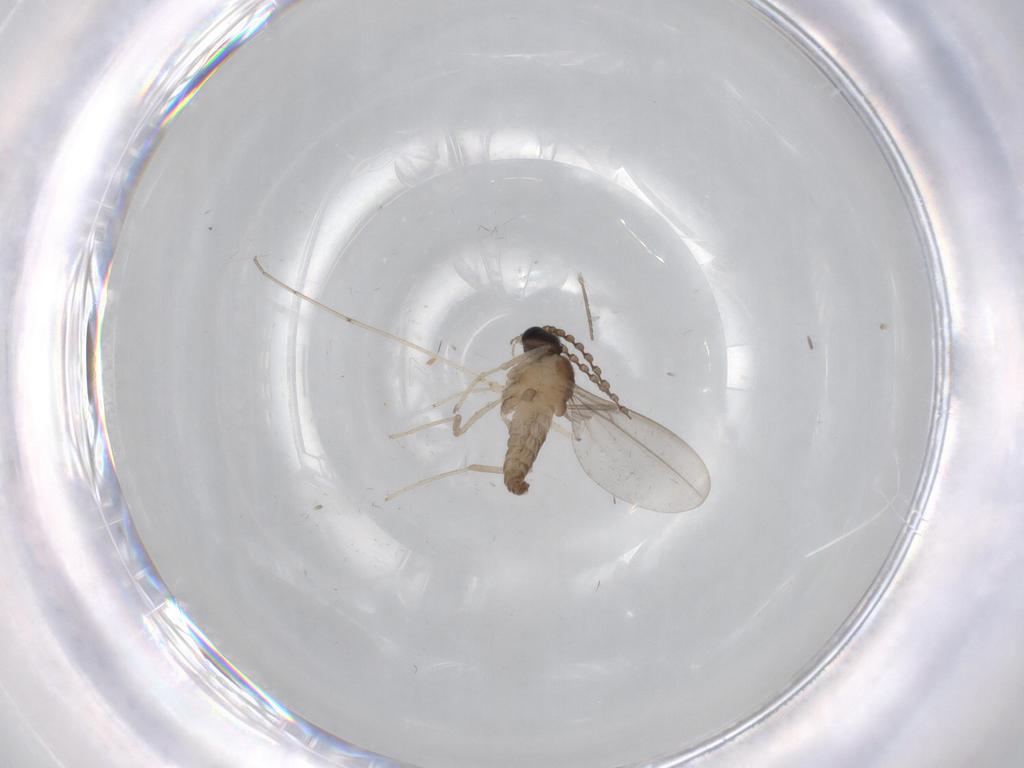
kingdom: Animalia
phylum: Arthropoda
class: Insecta
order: Diptera
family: Cecidomyiidae
